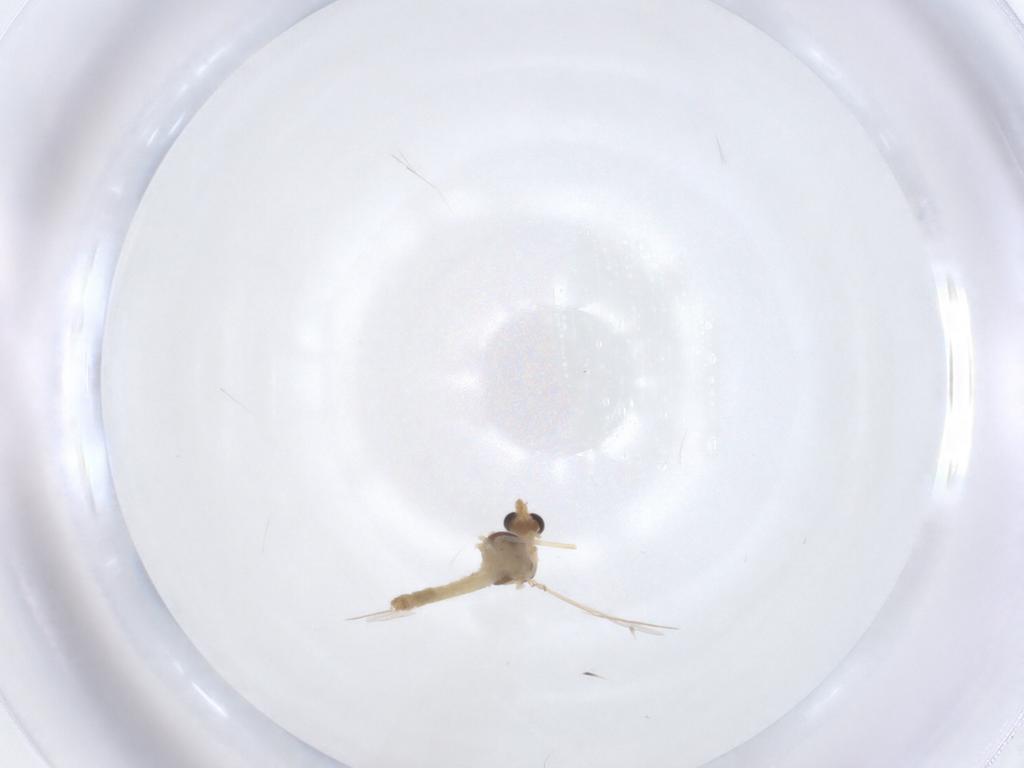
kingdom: Animalia
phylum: Arthropoda
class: Insecta
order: Diptera
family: Chironomidae
